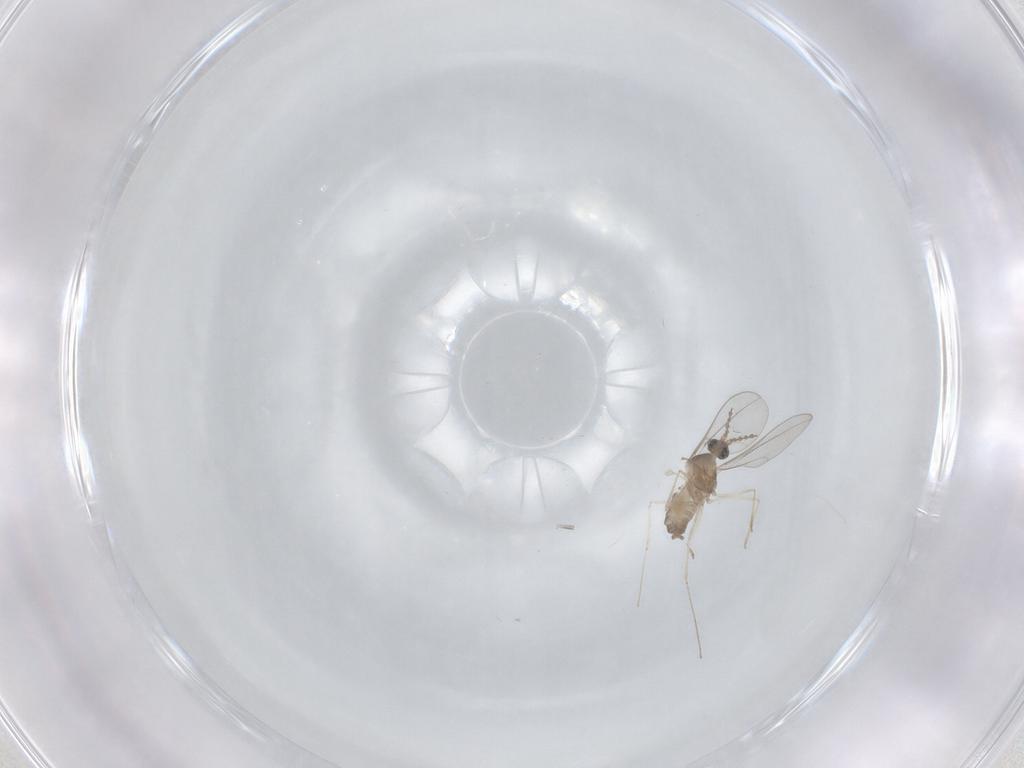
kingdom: Animalia
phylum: Arthropoda
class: Insecta
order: Diptera
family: Cecidomyiidae
